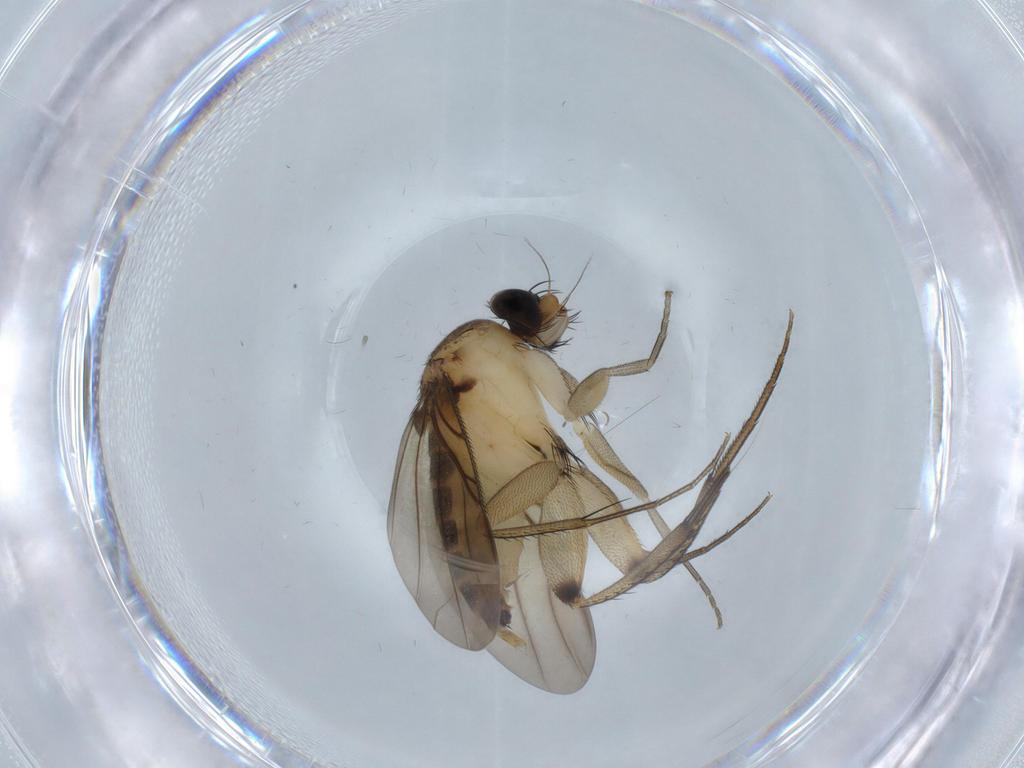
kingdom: Animalia
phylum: Arthropoda
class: Insecta
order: Diptera
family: Phoridae
